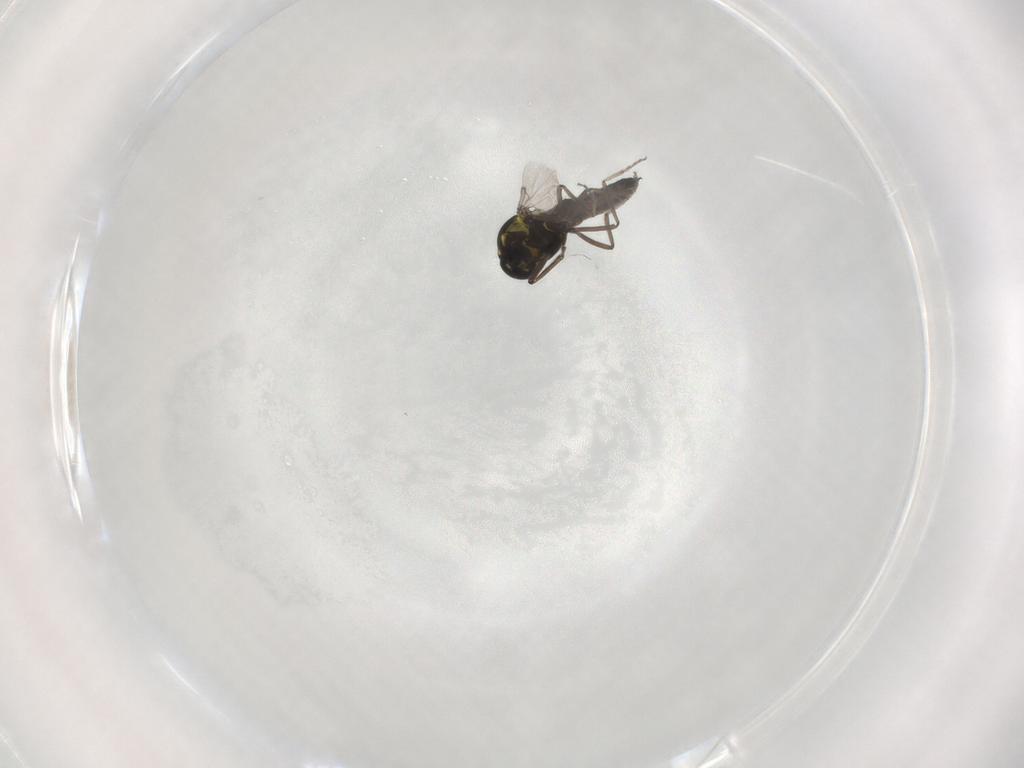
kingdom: Animalia
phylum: Arthropoda
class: Insecta
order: Diptera
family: Ceratopogonidae
